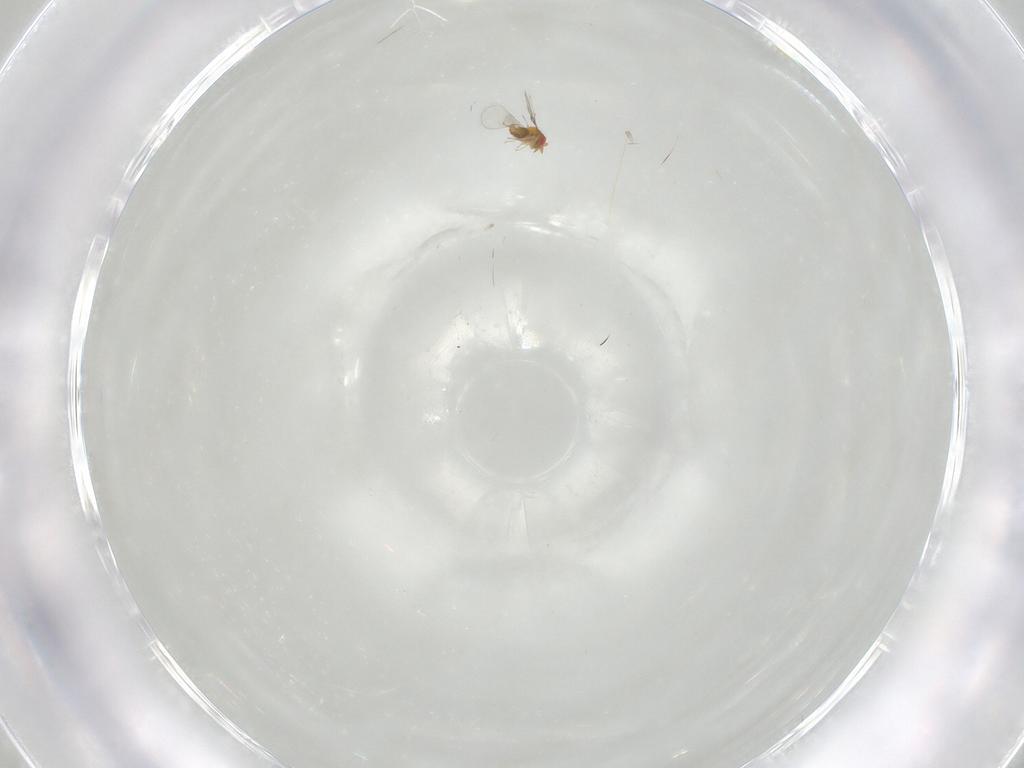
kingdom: Animalia
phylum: Arthropoda
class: Insecta
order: Hymenoptera
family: Trichogrammatidae
